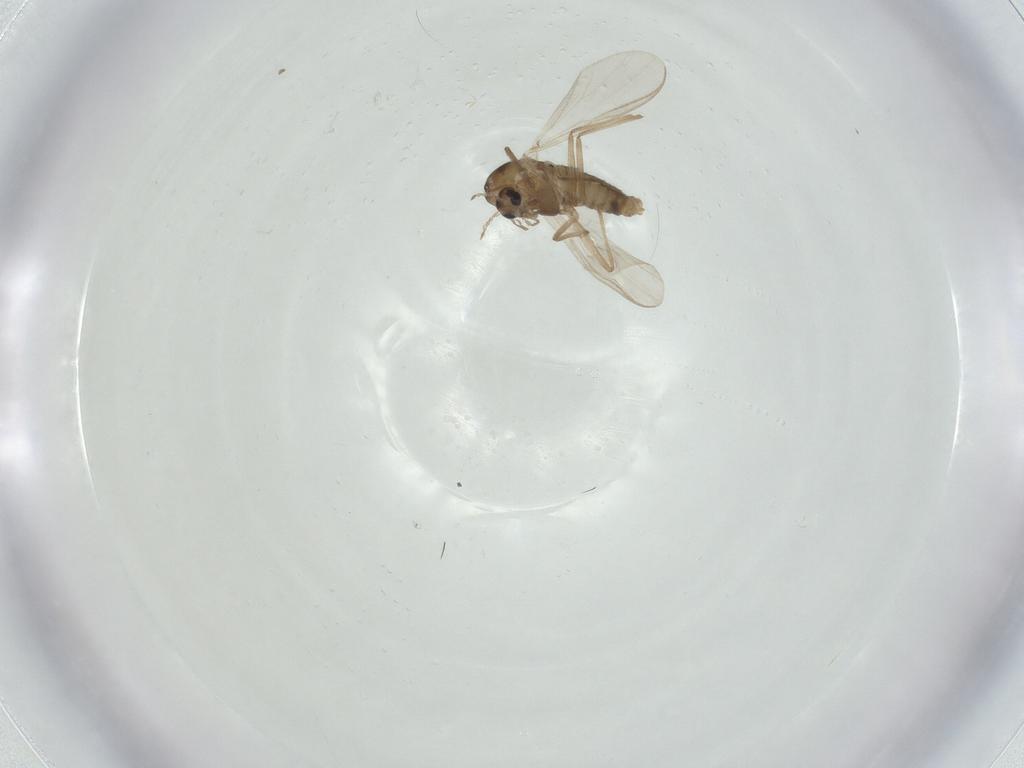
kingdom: Animalia
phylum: Arthropoda
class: Insecta
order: Diptera
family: Chironomidae
